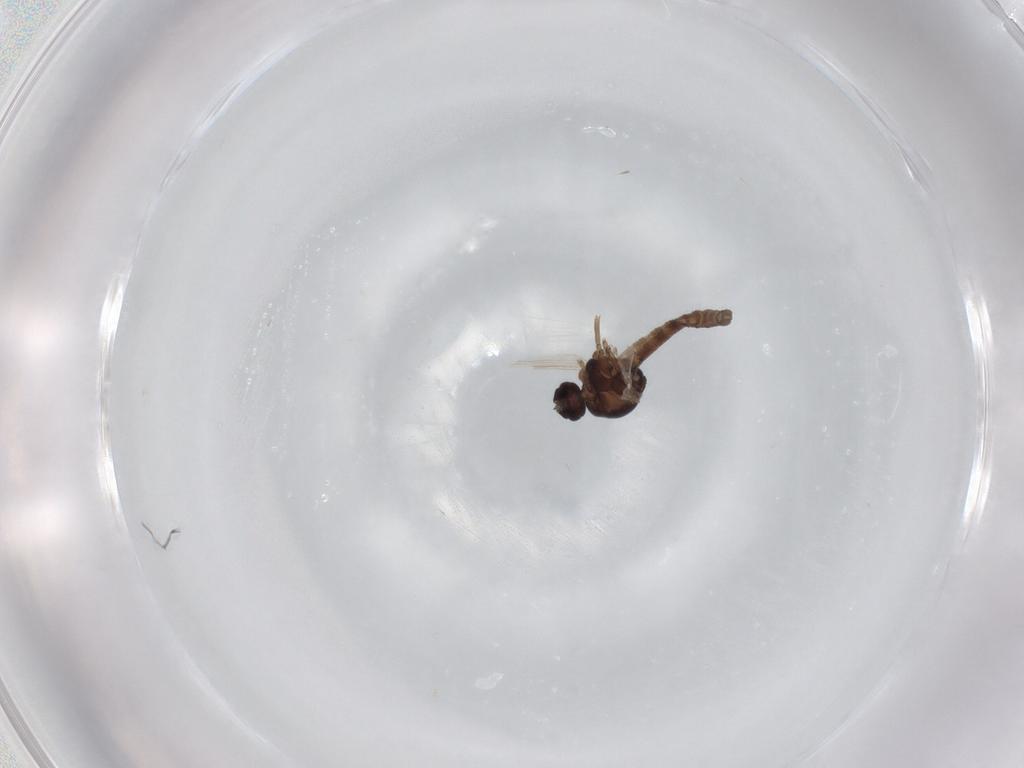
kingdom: Animalia
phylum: Arthropoda
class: Insecta
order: Diptera
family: Ceratopogonidae
